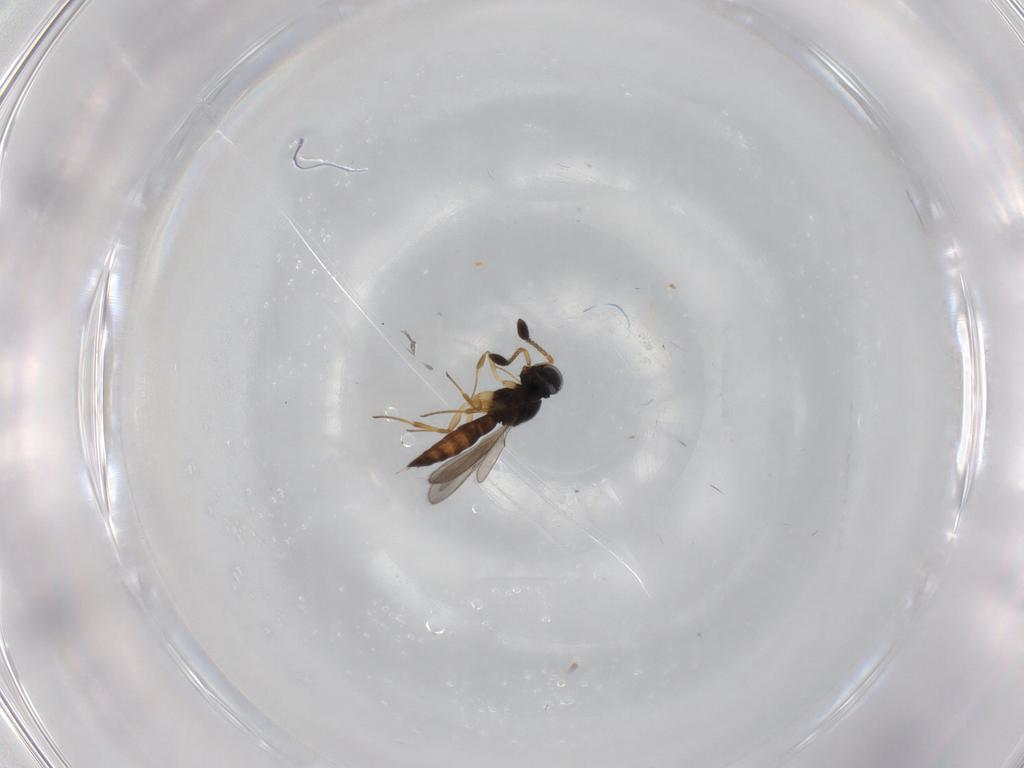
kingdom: Animalia
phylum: Arthropoda
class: Insecta
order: Hymenoptera
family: Scelionidae
